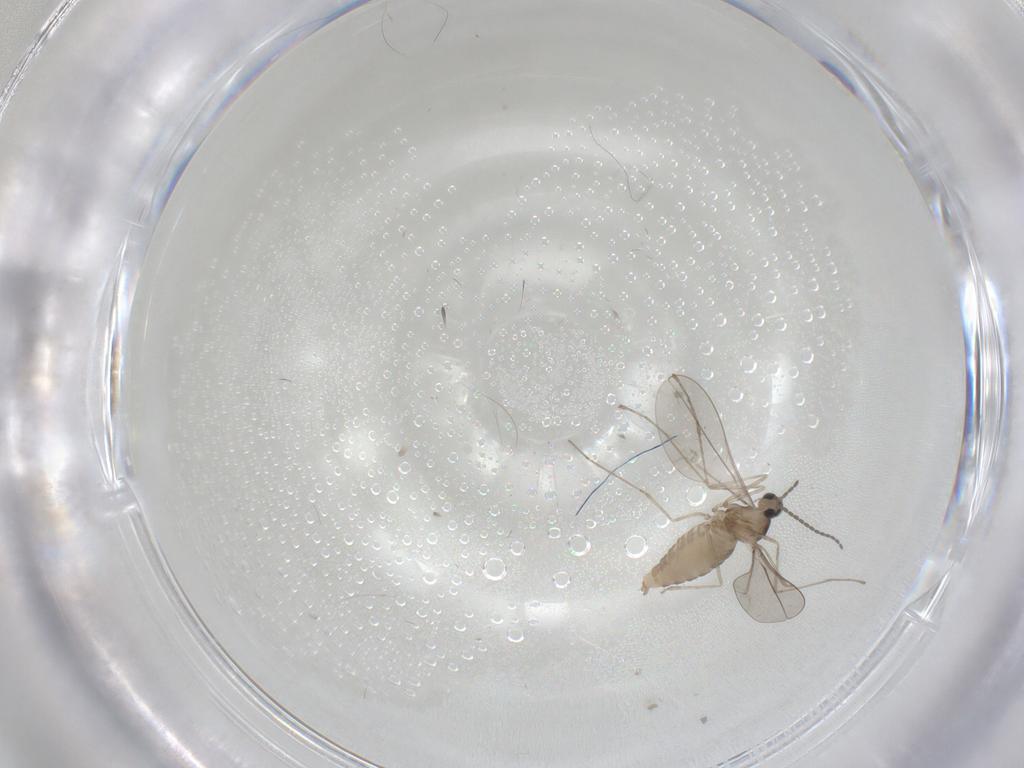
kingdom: Animalia
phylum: Arthropoda
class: Insecta
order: Diptera
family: Cecidomyiidae
